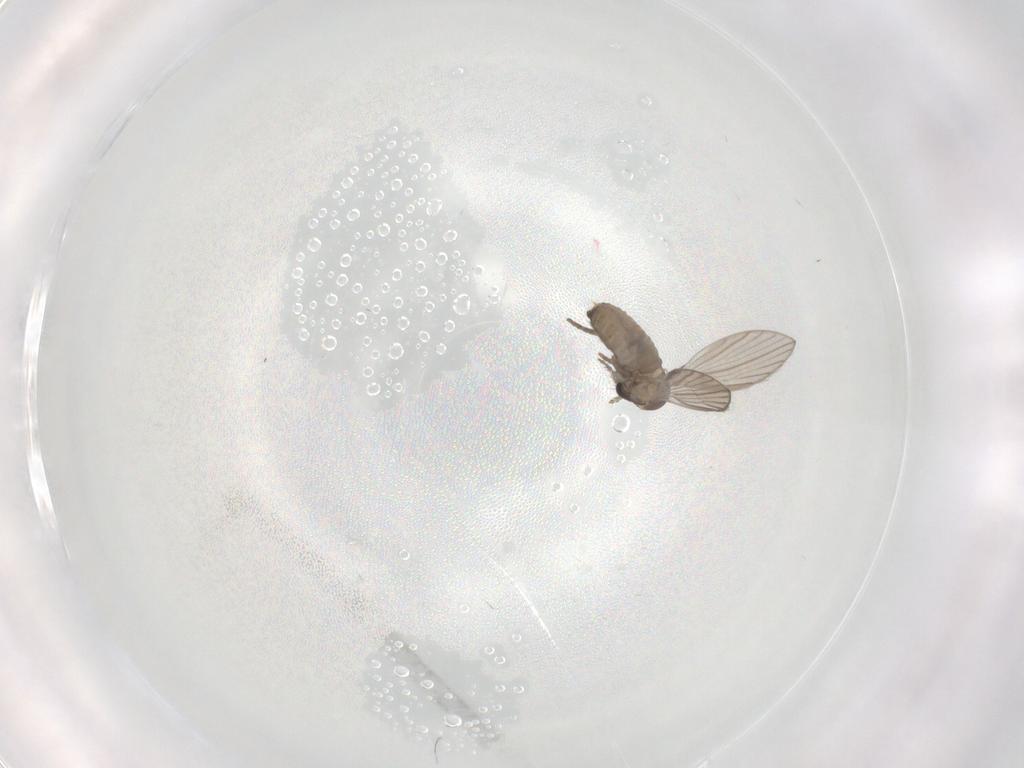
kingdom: Animalia
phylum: Arthropoda
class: Insecta
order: Diptera
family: Psychodidae
